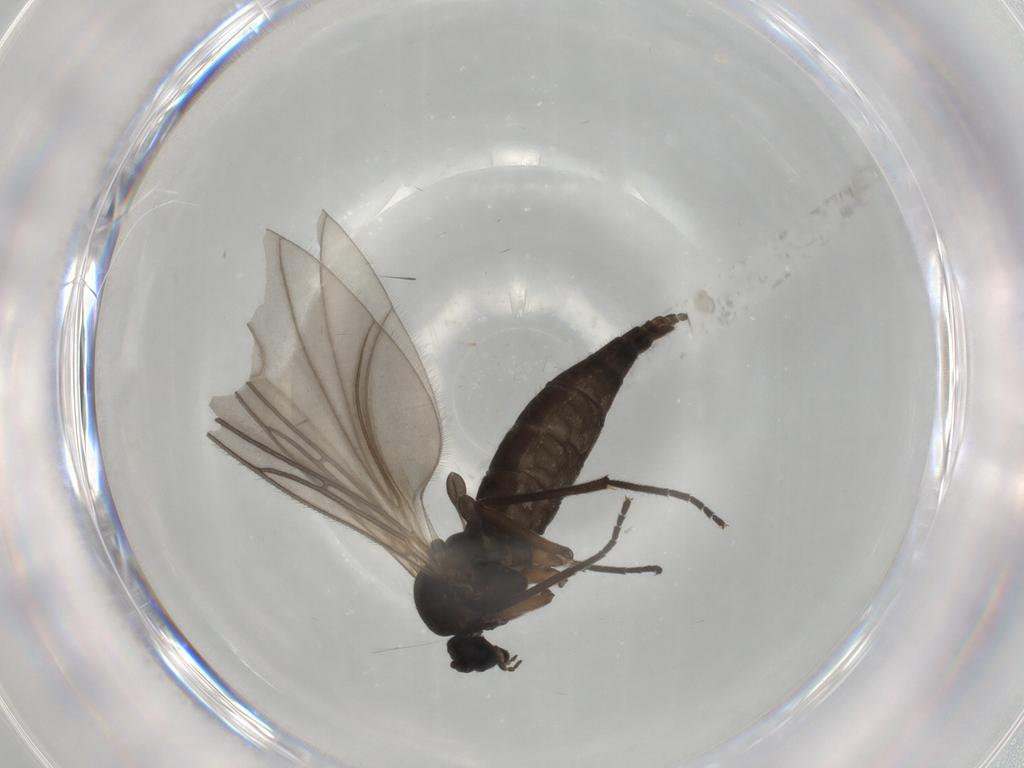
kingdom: Animalia
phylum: Arthropoda
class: Insecta
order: Diptera
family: Sciaridae
